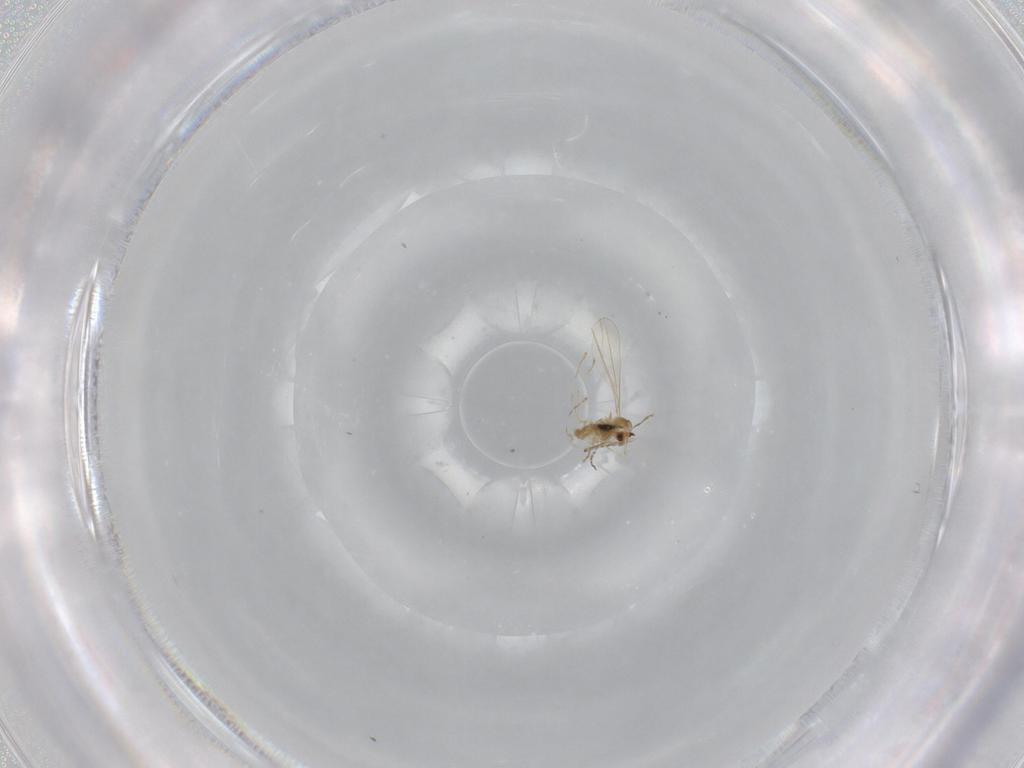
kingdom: Animalia
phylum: Arthropoda
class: Insecta
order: Diptera
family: Cecidomyiidae
